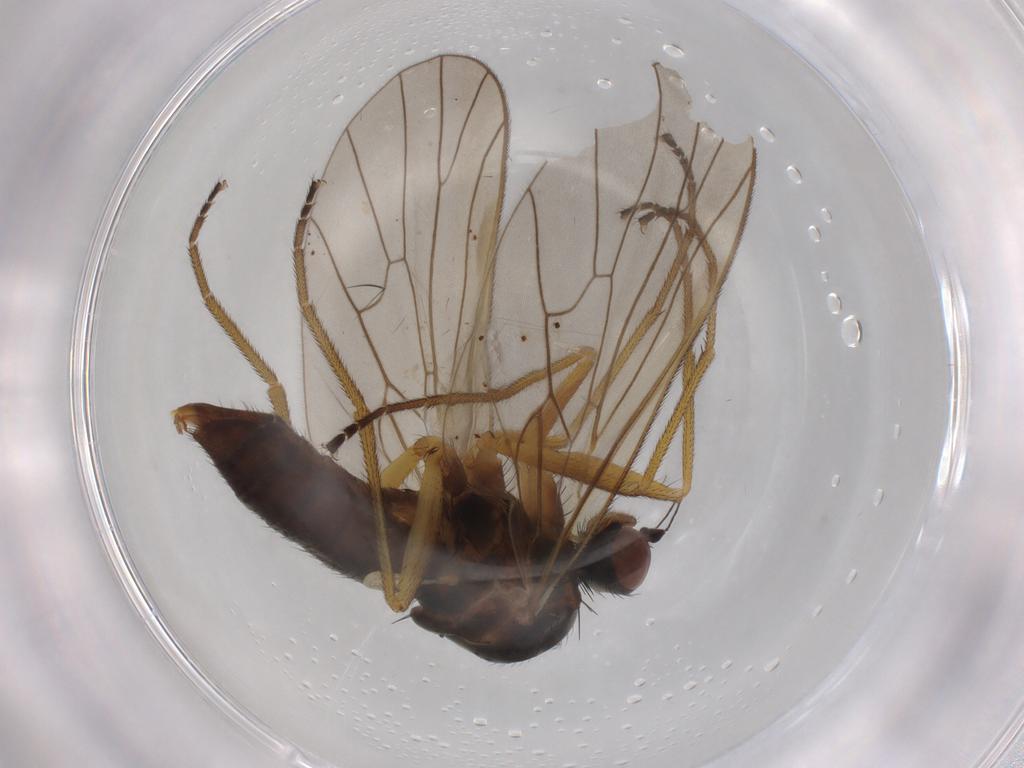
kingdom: Animalia
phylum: Arthropoda
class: Insecta
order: Diptera
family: Brachystomatidae
